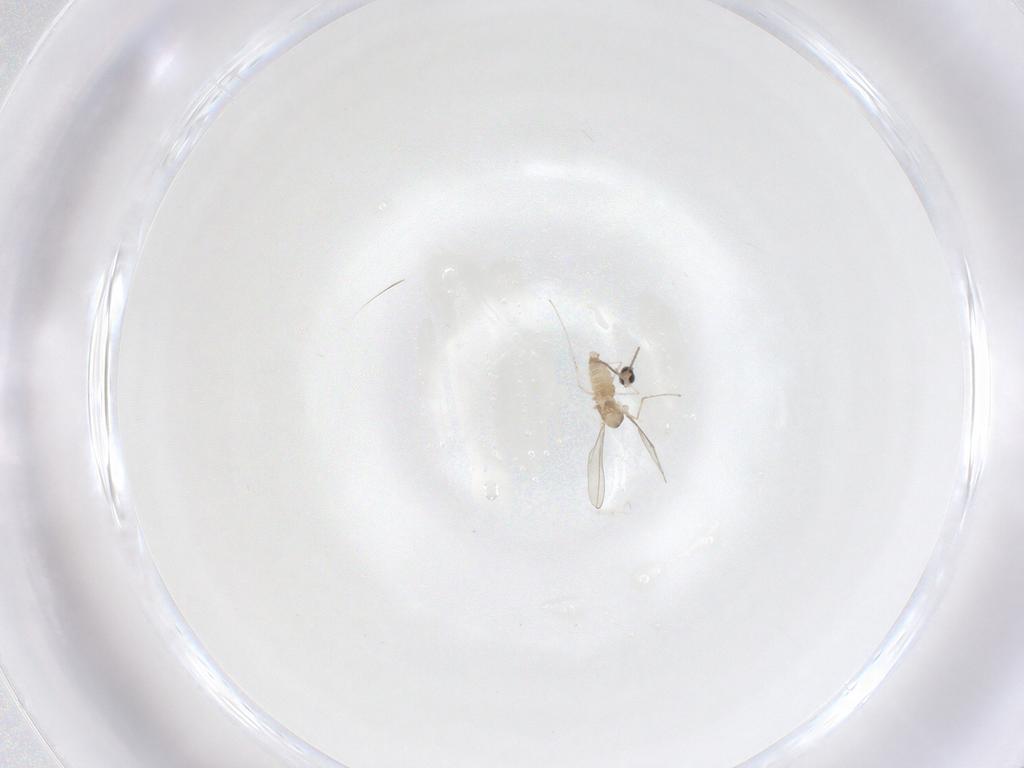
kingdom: Animalia
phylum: Arthropoda
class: Insecta
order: Diptera
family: Cecidomyiidae
